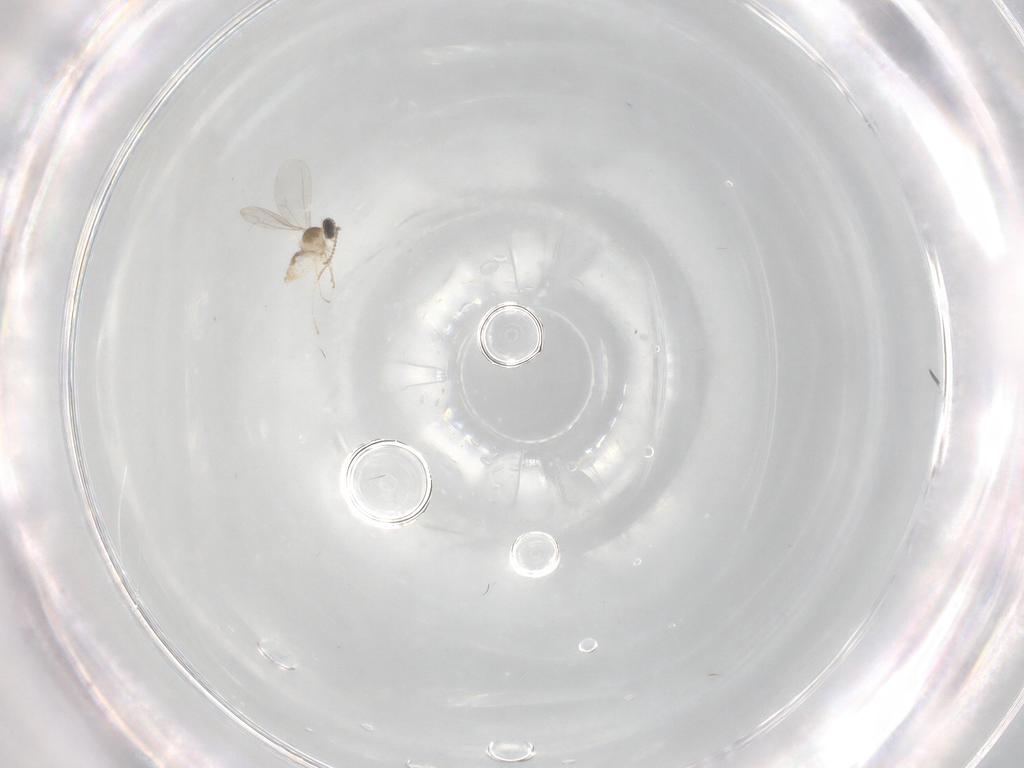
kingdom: Animalia
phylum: Arthropoda
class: Insecta
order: Diptera
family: Cecidomyiidae
